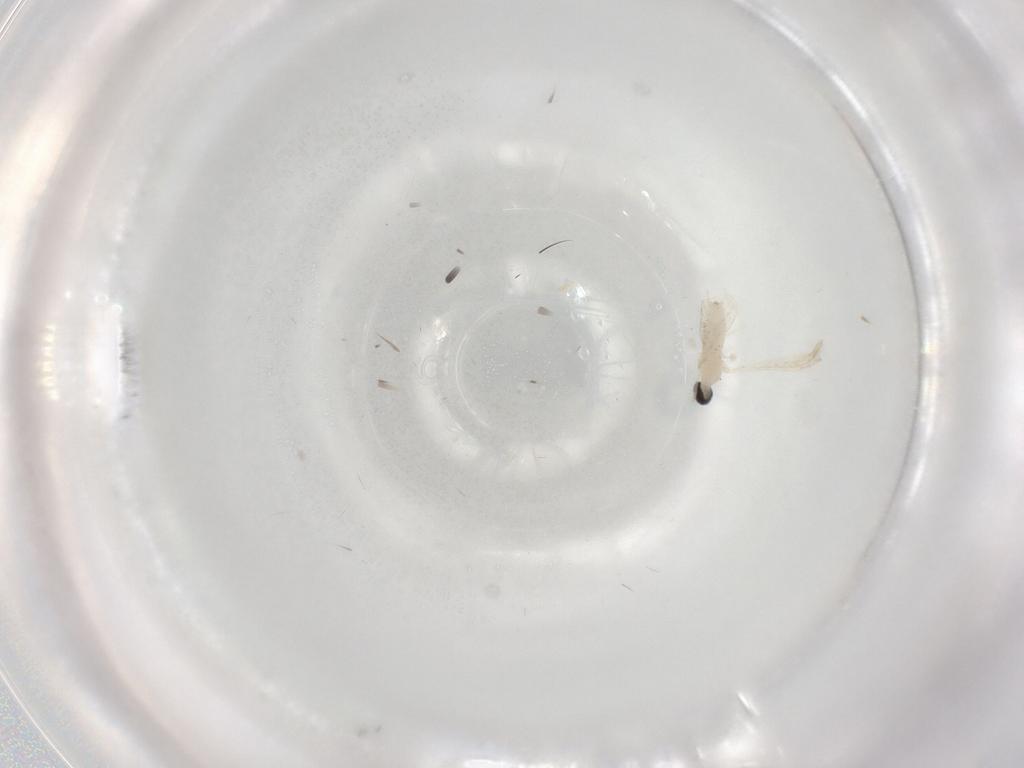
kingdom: Animalia
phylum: Arthropoda
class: Insecta
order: Diptera
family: Cecidomyiidae
